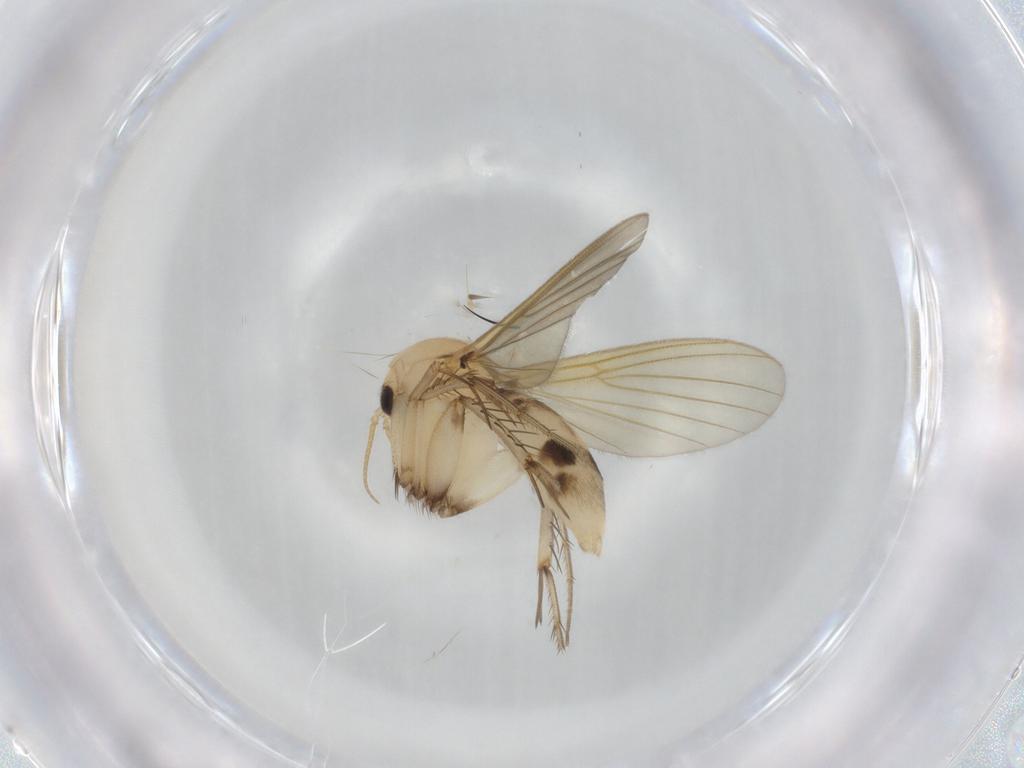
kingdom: Animalia
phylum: Arthropoda
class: Insecta
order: Diptera
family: Mycetophilidae
